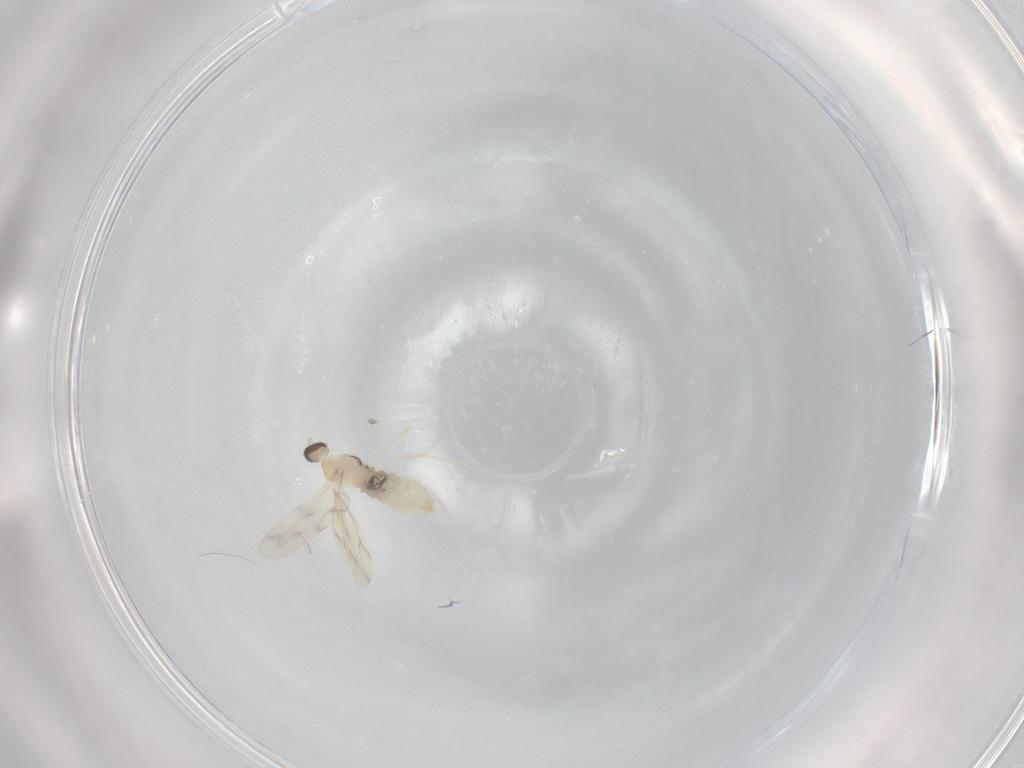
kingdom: Animalia
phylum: Arthropoda
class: Insecta
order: Diptera
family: Cecidomyiidae
